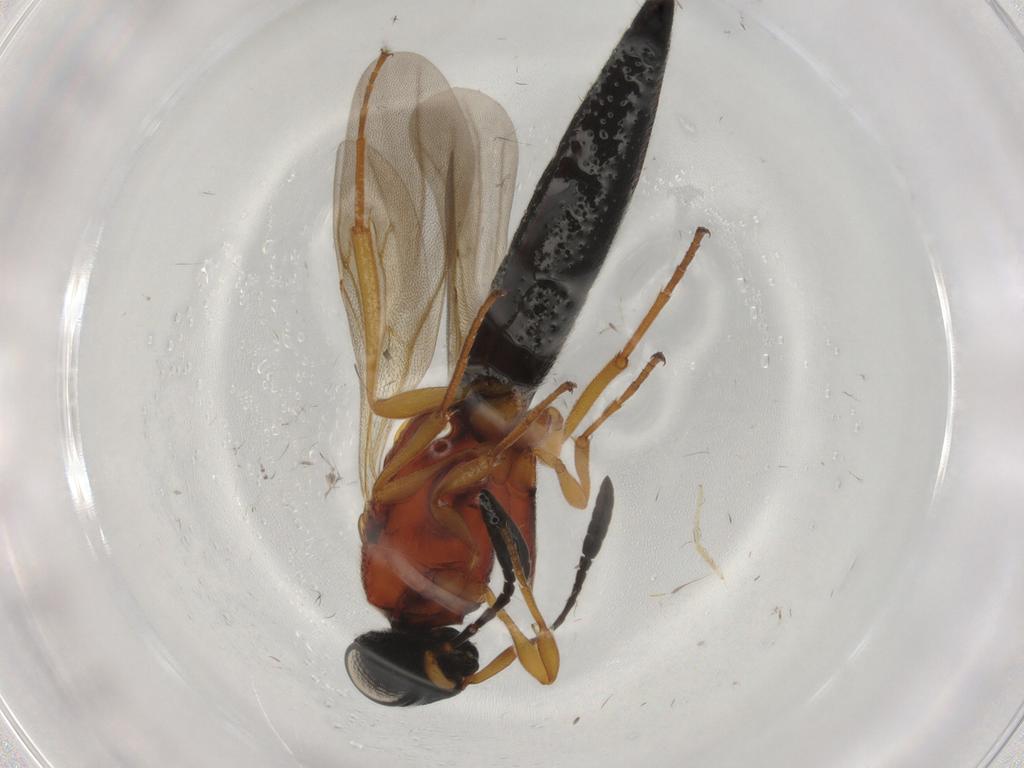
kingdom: Animalia
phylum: Arthropoda
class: Insecta
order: Hymenoptera
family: Scelionidae
